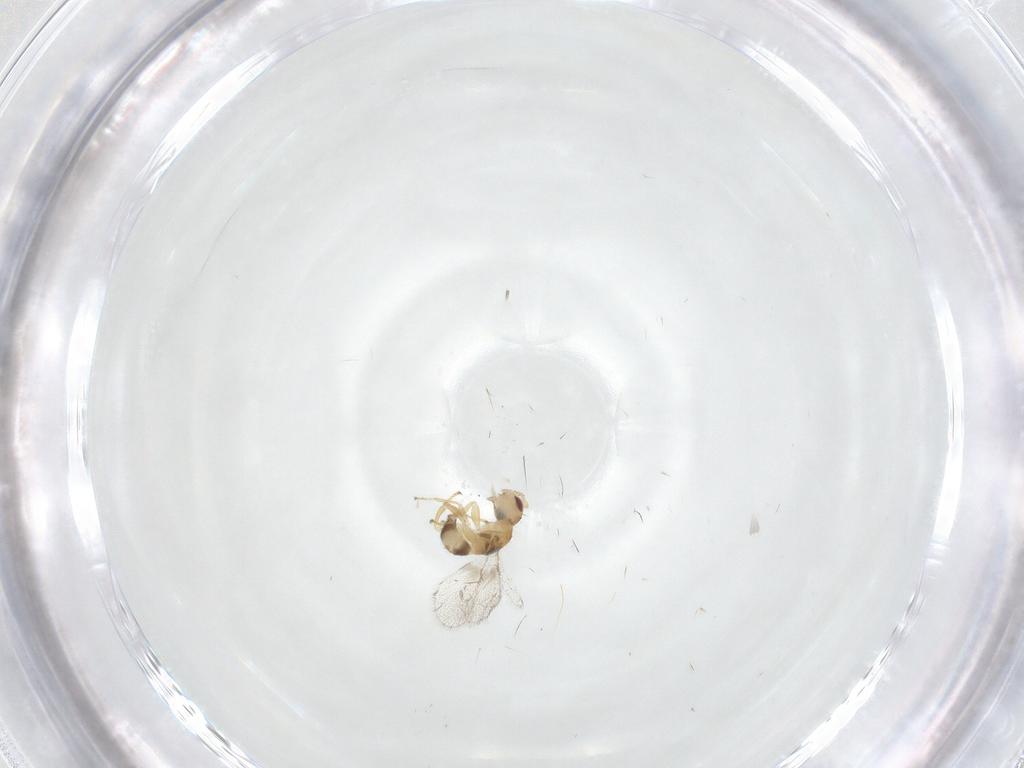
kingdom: Animalia
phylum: Arthropoda
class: Insecta
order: Hymenoptera
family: Torymidae
